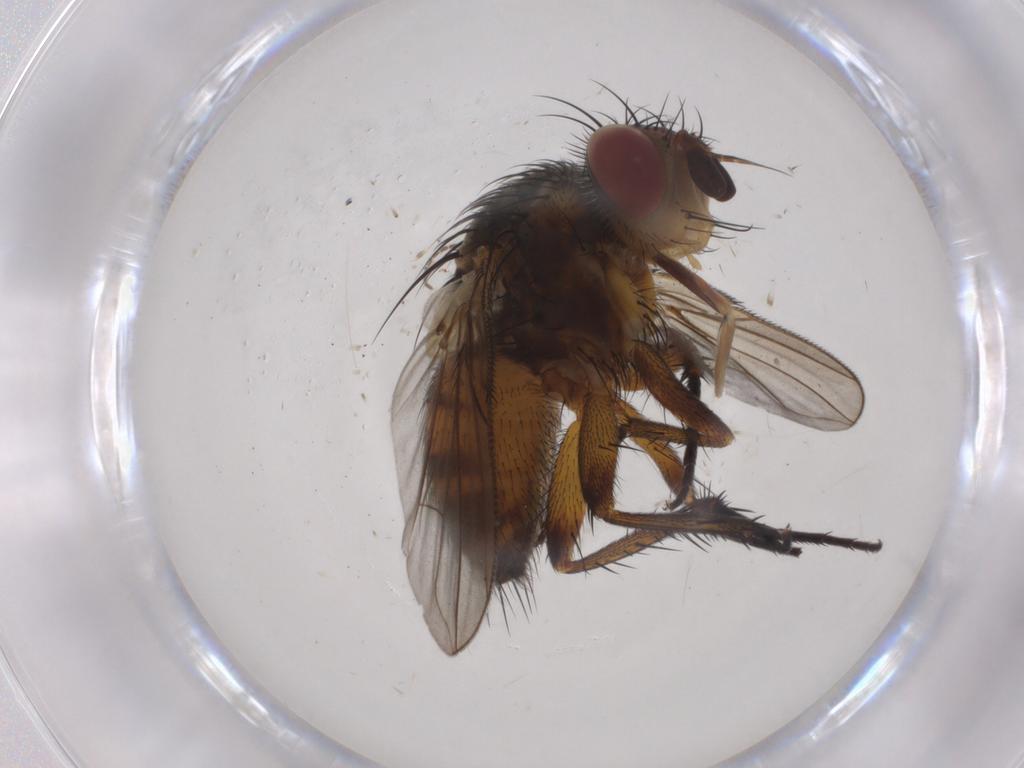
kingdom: Animalia
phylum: Arthropoda
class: Insecta
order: Diptera
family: Tachinidae
